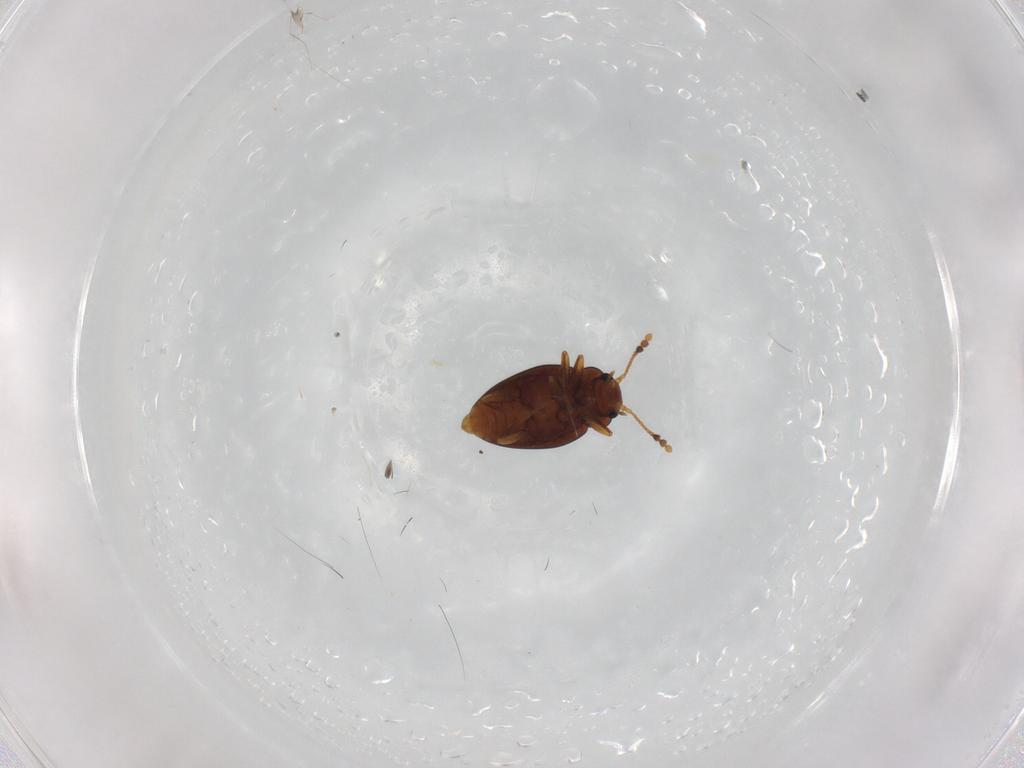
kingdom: Animalia
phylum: Arthropoda
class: Insecta
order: Coleoptera
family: Erotylidae
